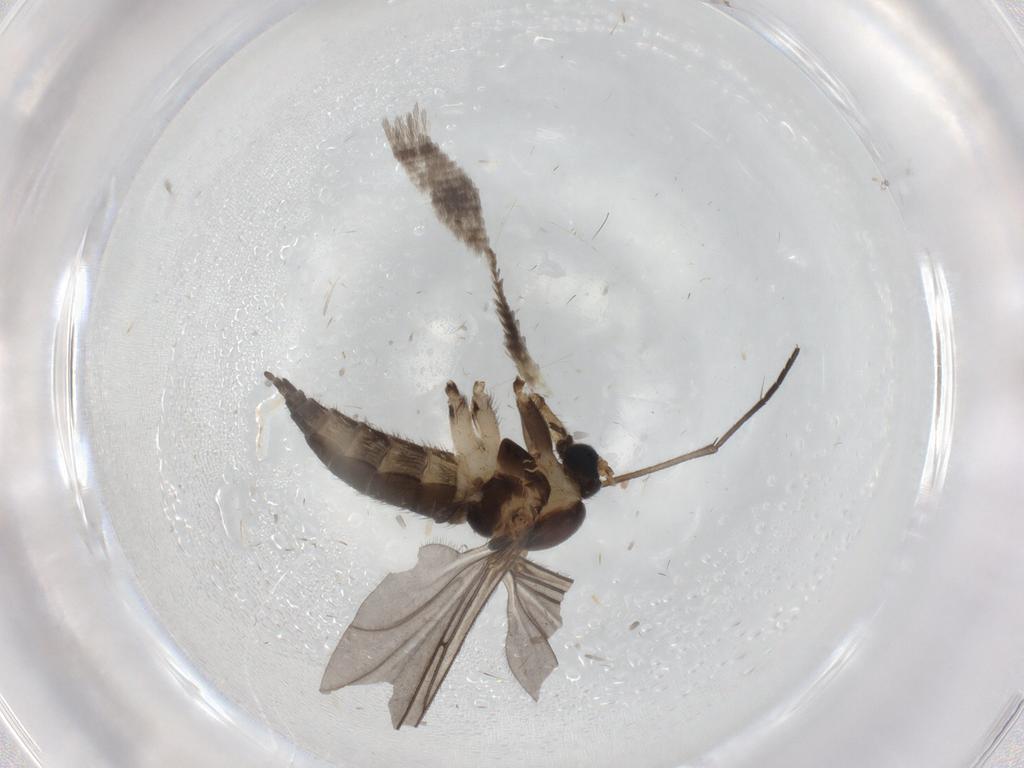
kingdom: Animalia
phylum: Arthropoda
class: Insecta
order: Diptera
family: Sciaridae
